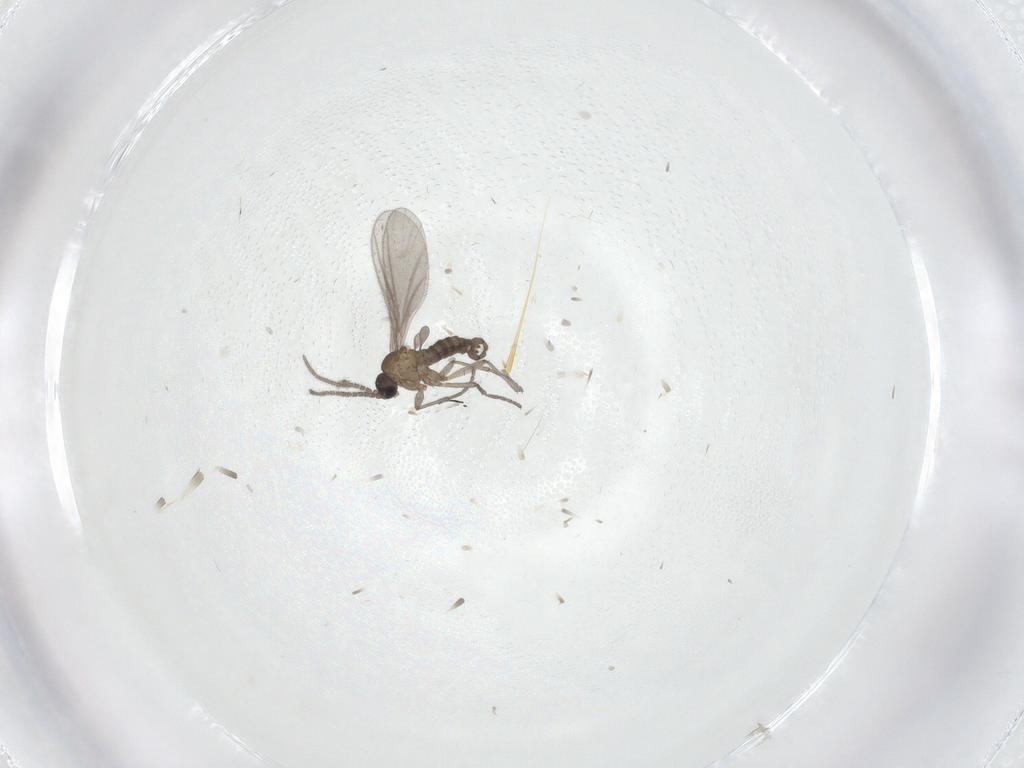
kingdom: Animalia
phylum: Arthropoda
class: Insecta
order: Diptera
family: Sciaridae
